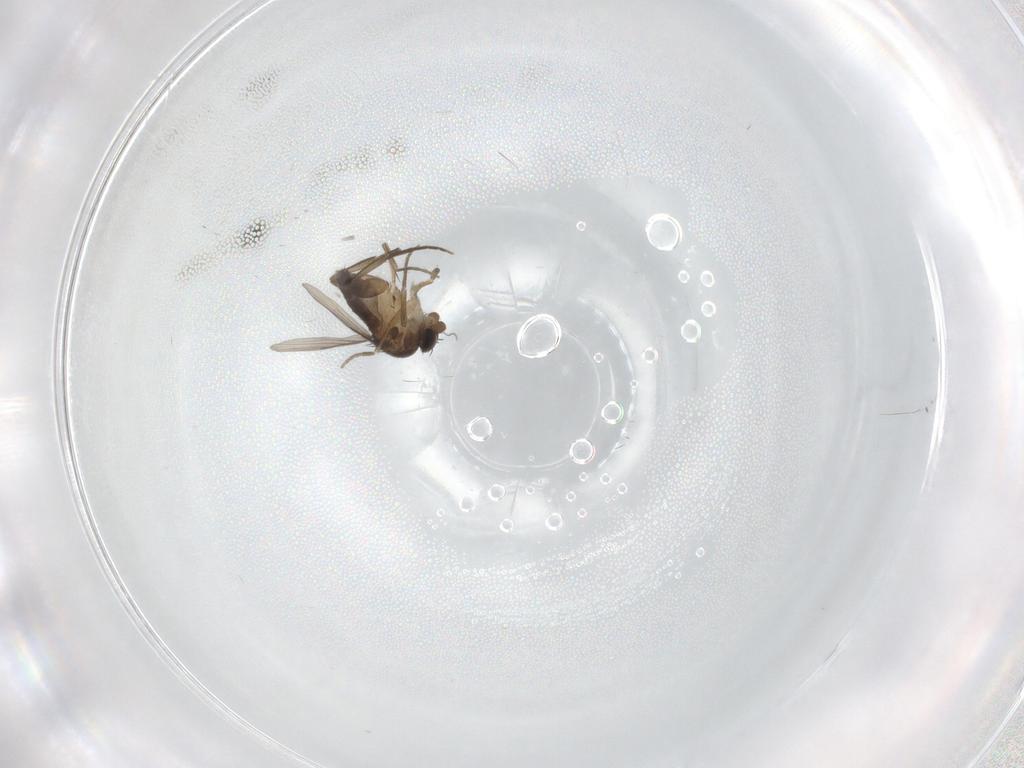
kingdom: Animalia
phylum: Arthropoda
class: Insecta
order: Diptera
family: Phoridae
